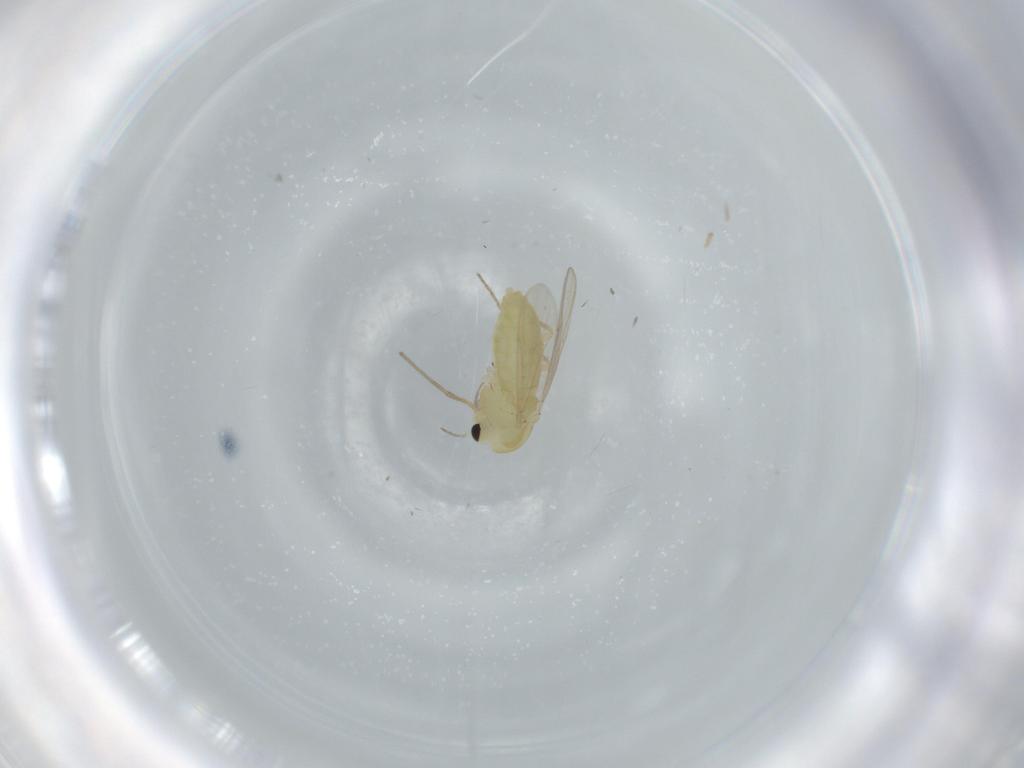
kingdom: Animalia
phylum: Arthropoda
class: Insecta
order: Diptera
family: Chironomidae
